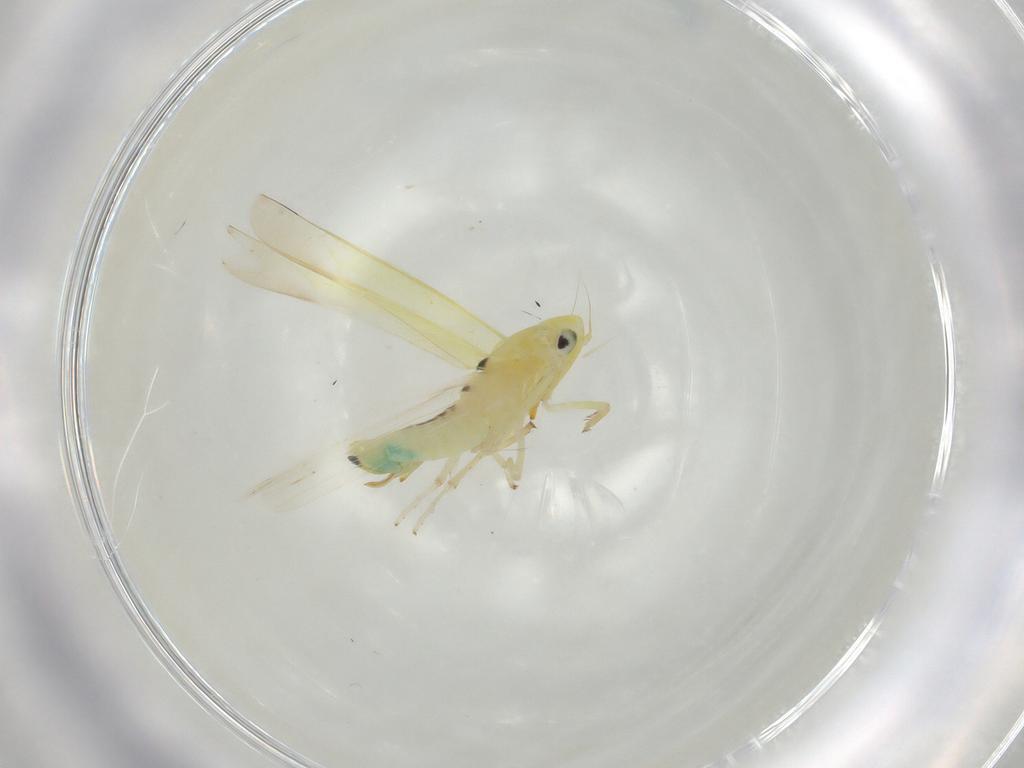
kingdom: Animalia
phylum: Arthropoda
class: Insecta
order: Hemiptera
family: Cicadellidae
